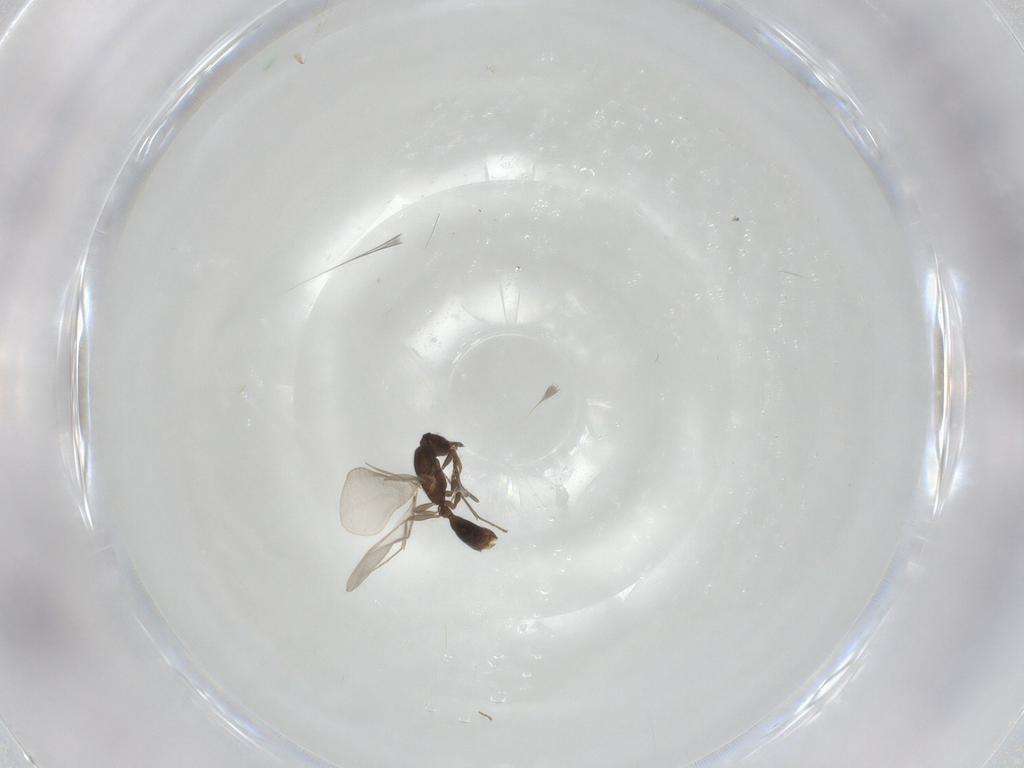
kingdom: Animalia
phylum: Arthropoda
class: Insecta
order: Hymenoptera
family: Formicidae
